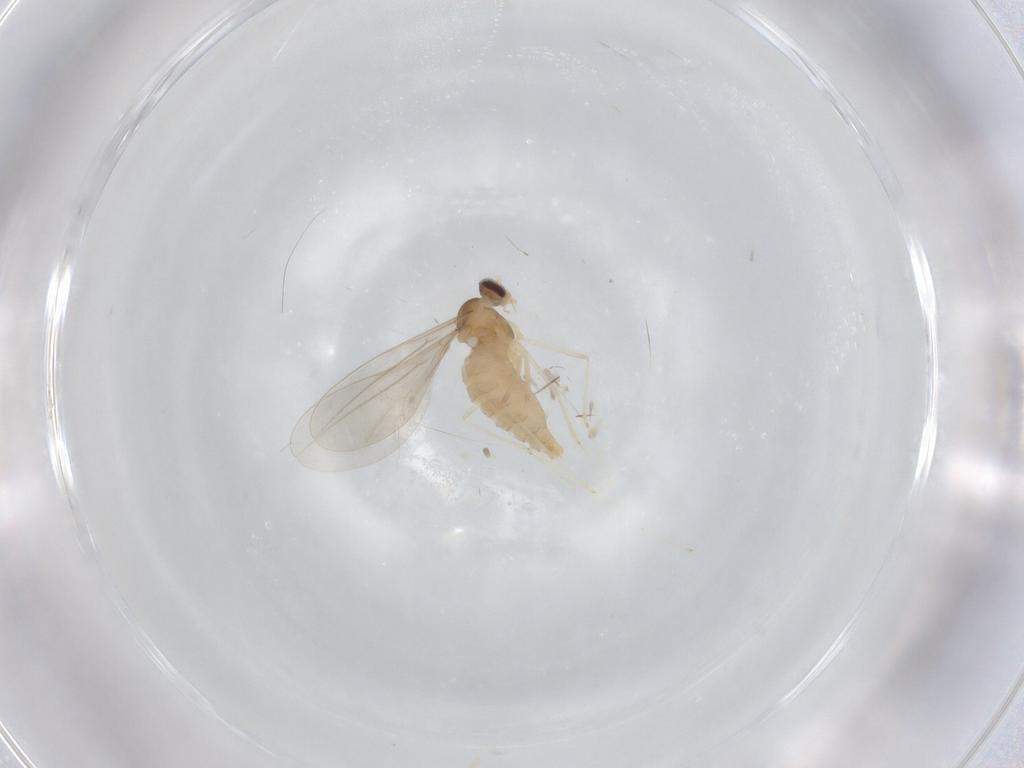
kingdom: Animalia
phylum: Arthropoda
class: Insecta
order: Diptera
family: Cecidomyiidae
